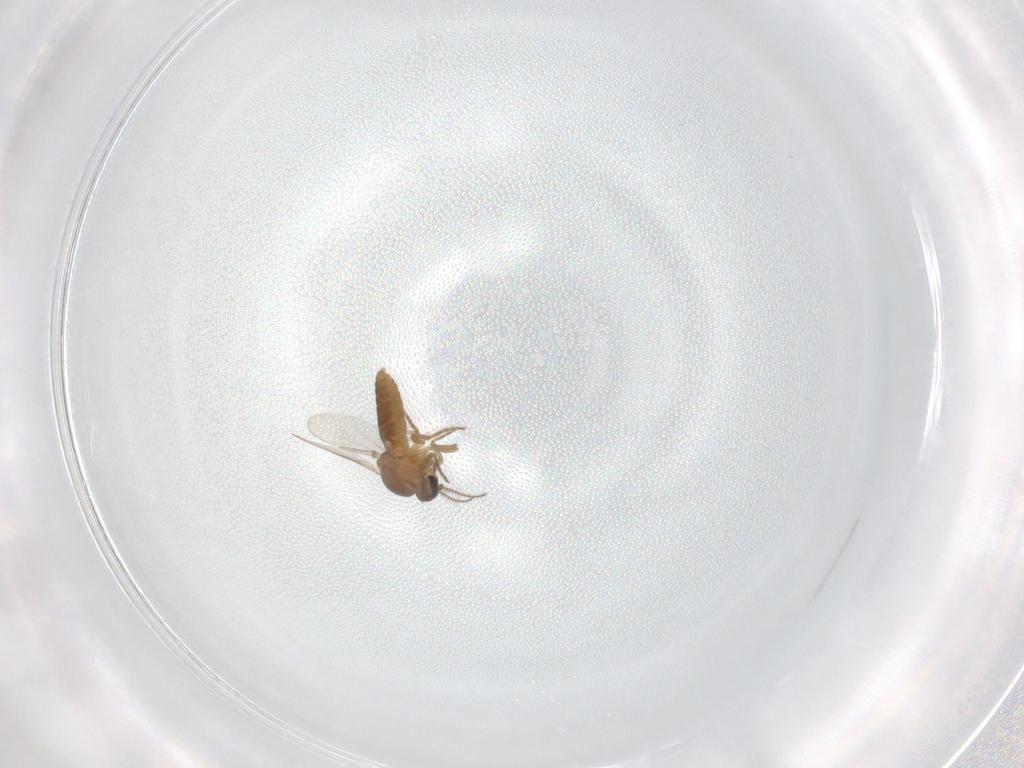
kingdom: Animalia
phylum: Arthropoda
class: Insecta
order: Diptera
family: Ceratopogonidae
